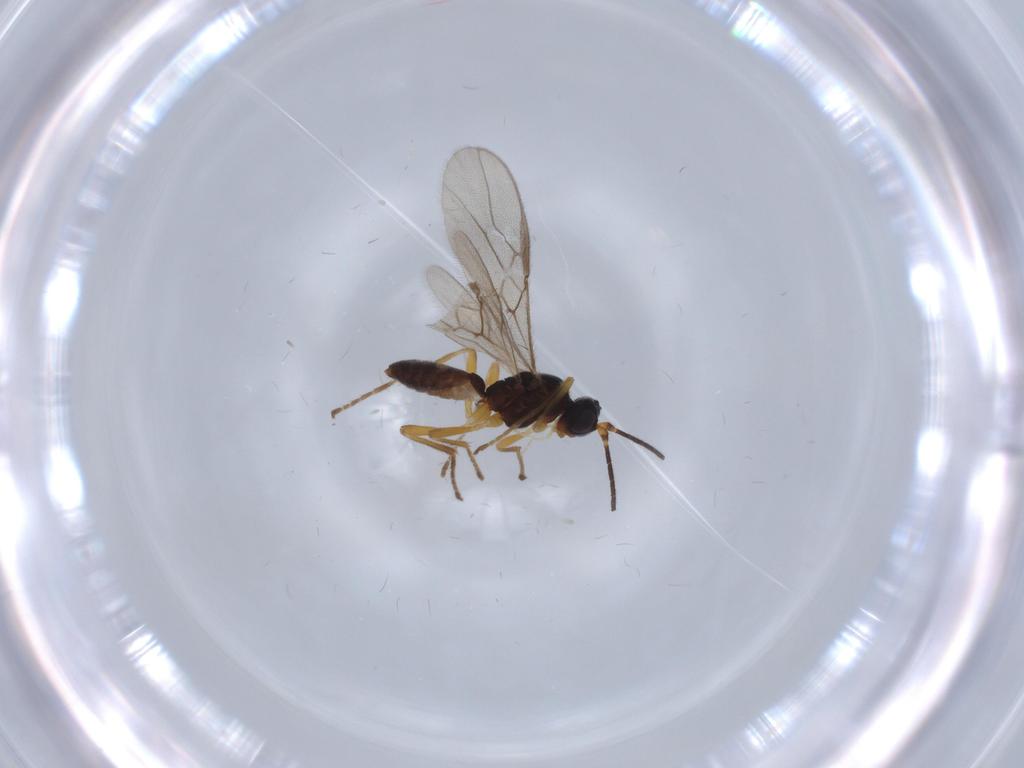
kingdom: Animalia
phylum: Arthropoda
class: Insecta
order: Hymenoptera
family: Braconidae
